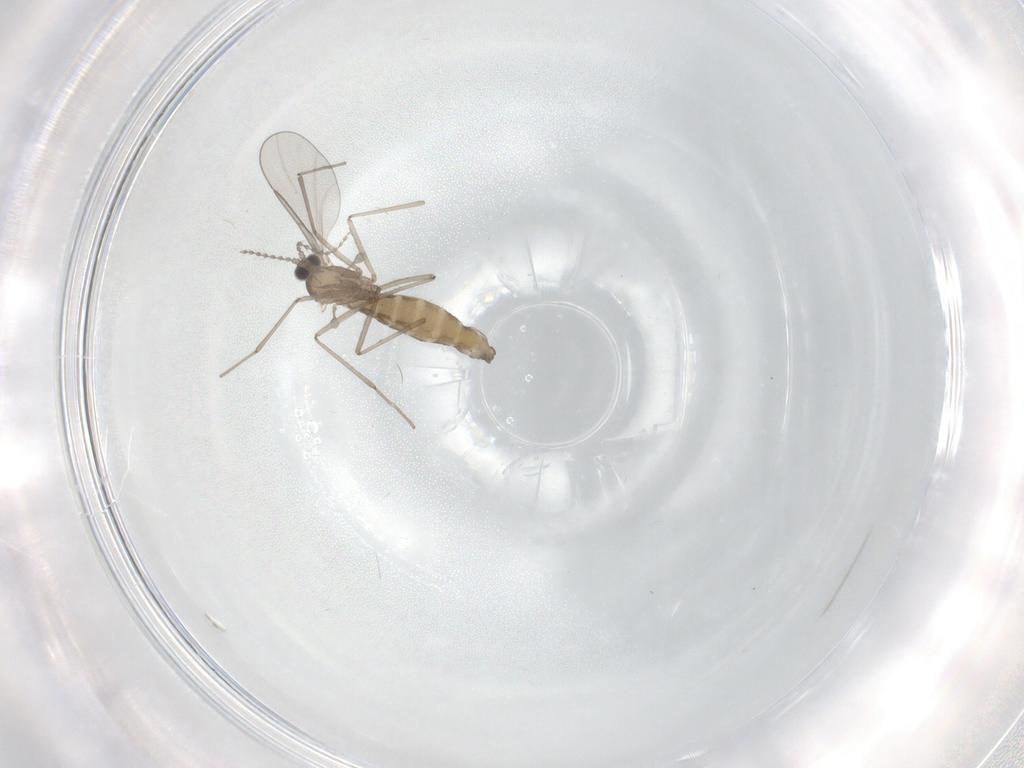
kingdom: Animalia
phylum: Arthropoda
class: Insecta
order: Diptera
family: Cecidomyiidae
